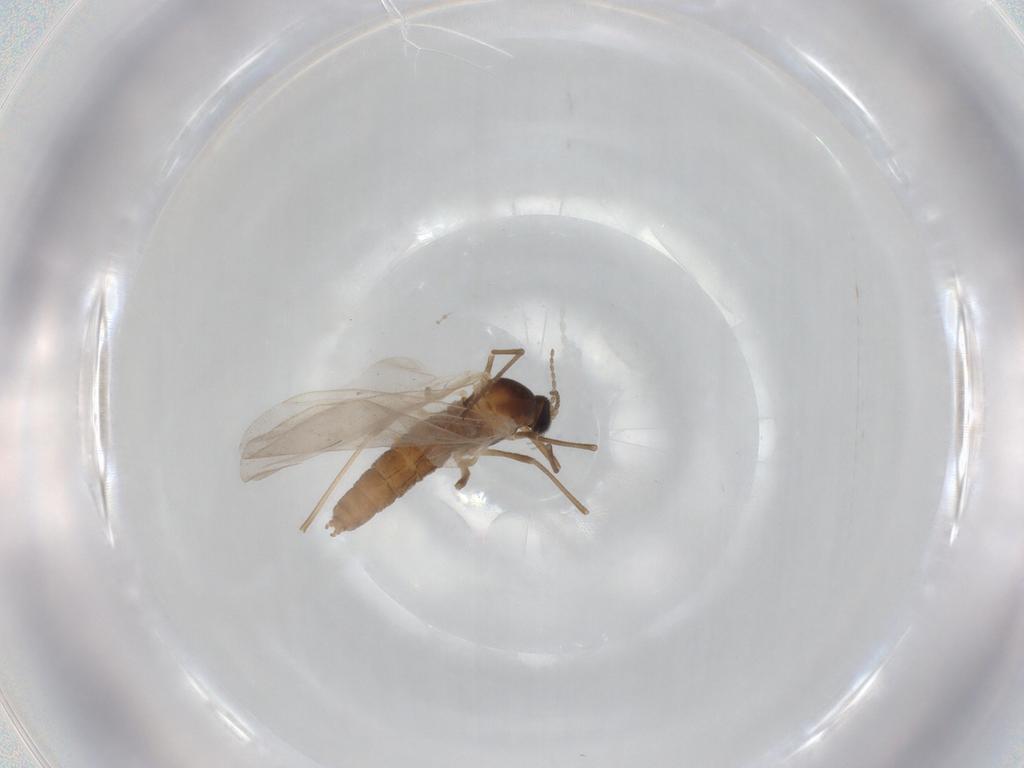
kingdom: Animalia
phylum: Arthropoda
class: Insecta
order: Diptera
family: Cecidomyiidae
